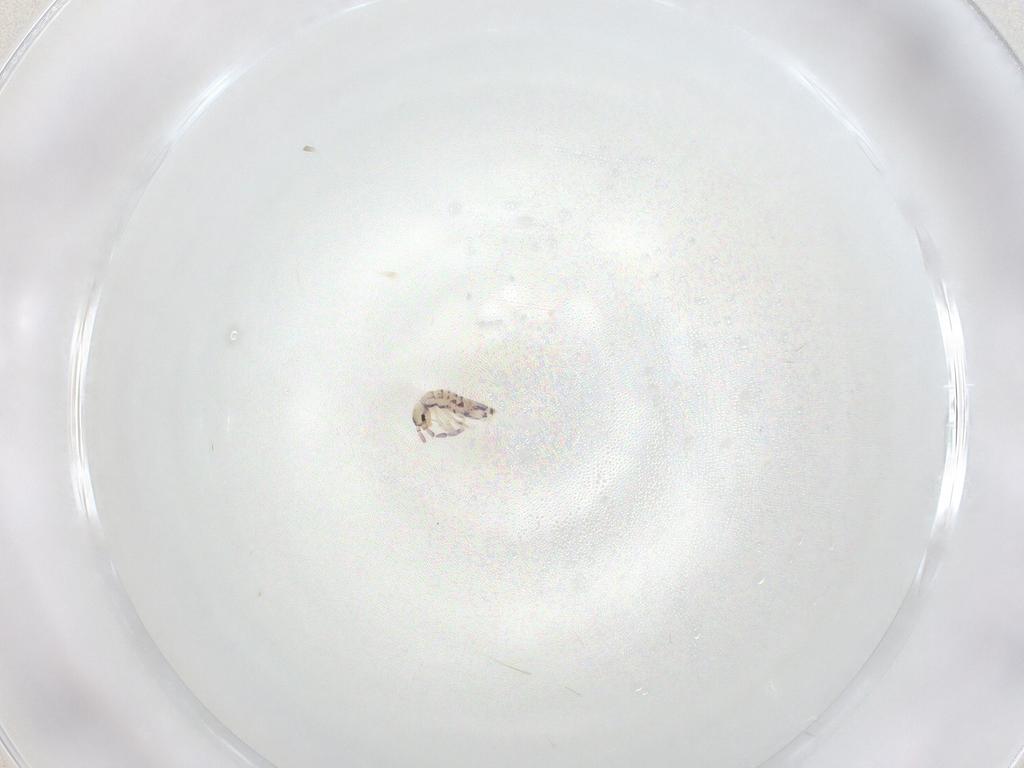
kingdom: Animalia
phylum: Arthropoda
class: Collembola
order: Entomobryomorpha
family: Entomobryidae
